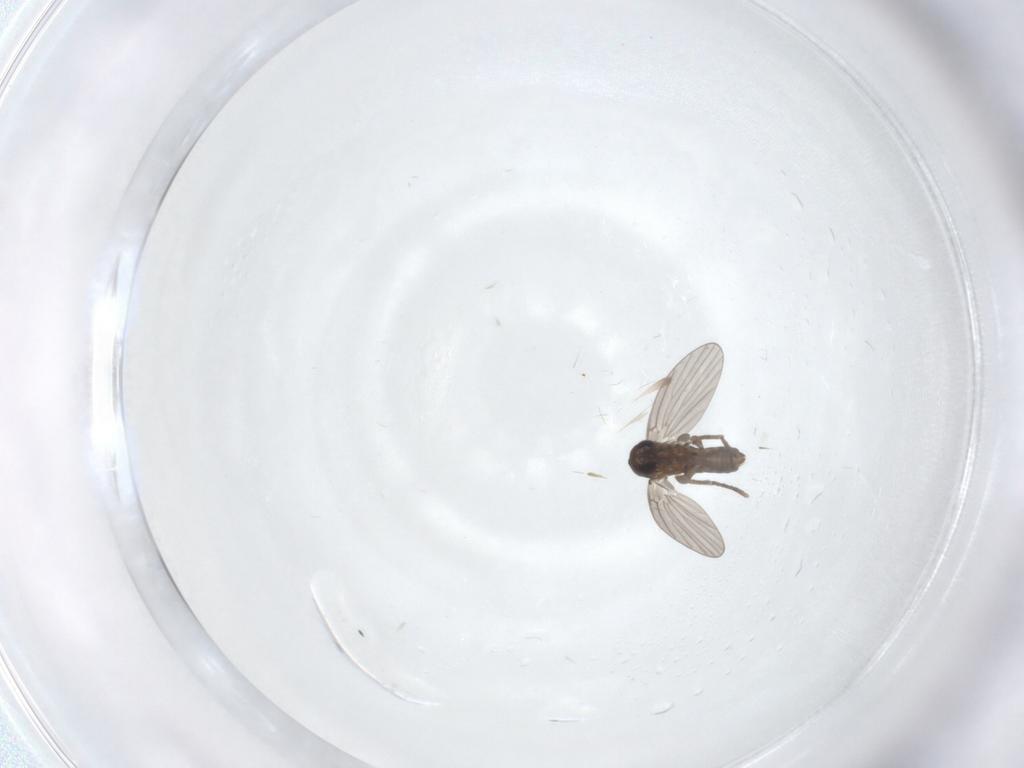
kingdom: Animalia
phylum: Arthropoda
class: Insecta
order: Diptera
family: Psychodidae
